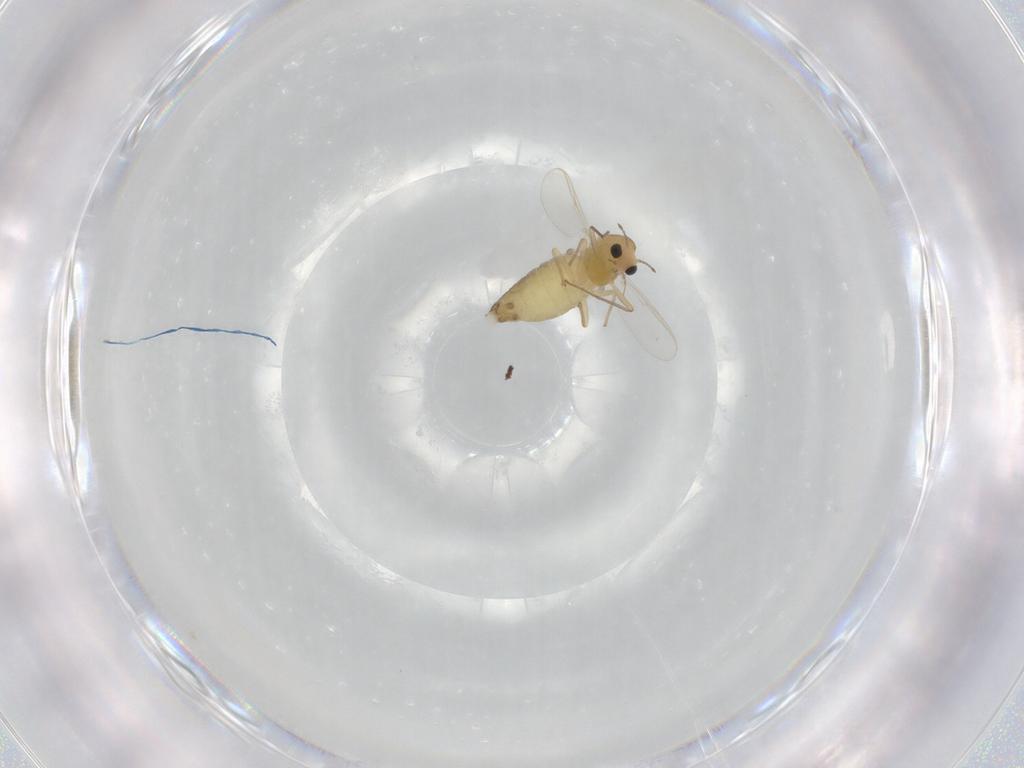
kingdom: Animalia
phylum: Arthropoda
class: Insecta
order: Diptera
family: Chironomidae
